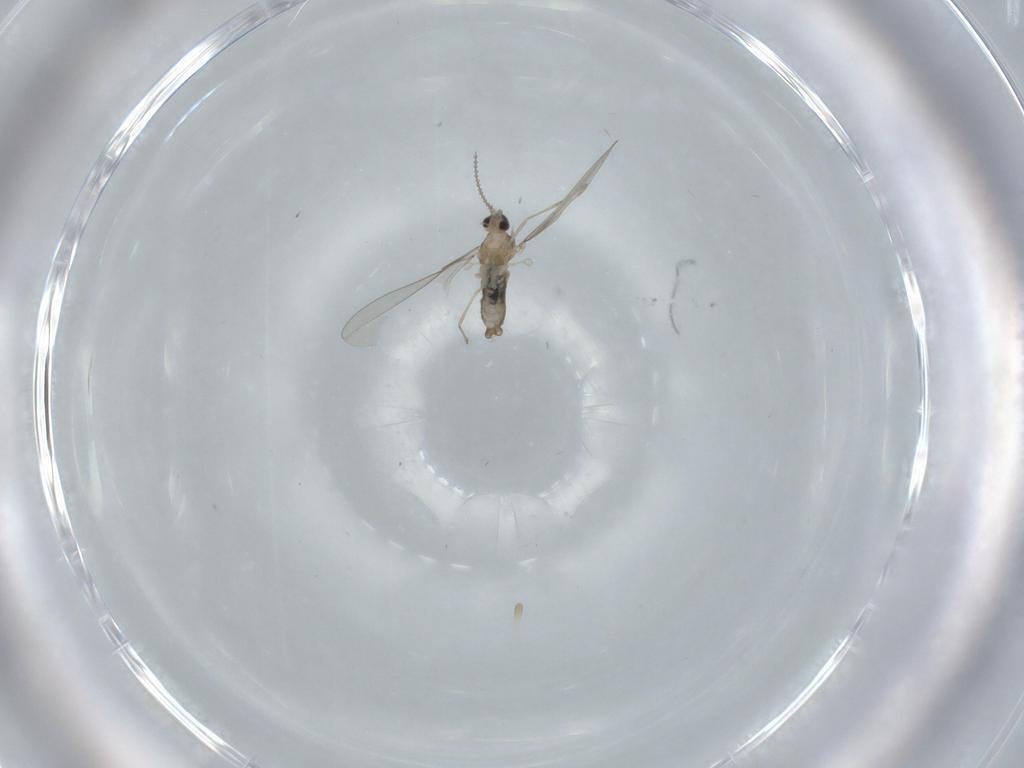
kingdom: Animalia
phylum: Arthropoda
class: Insecta
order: Diptera
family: Cecidomyiidae
